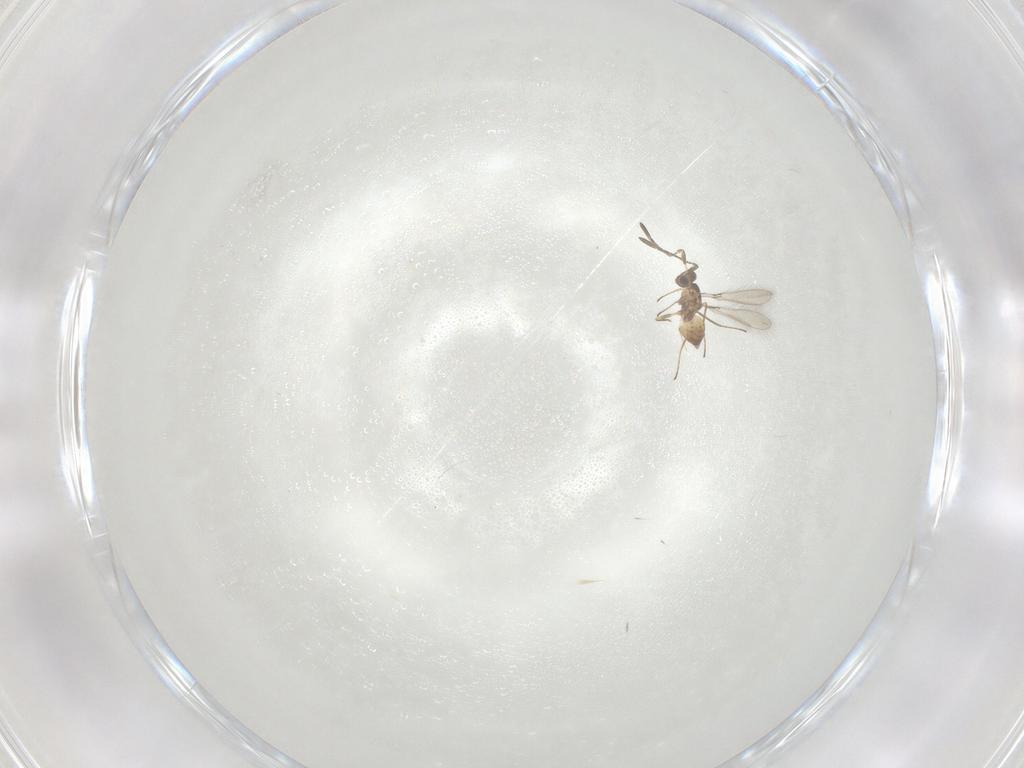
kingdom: Animalia
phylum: Arthropoda
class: Insecta
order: Hymenoptera
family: Mymaridae
